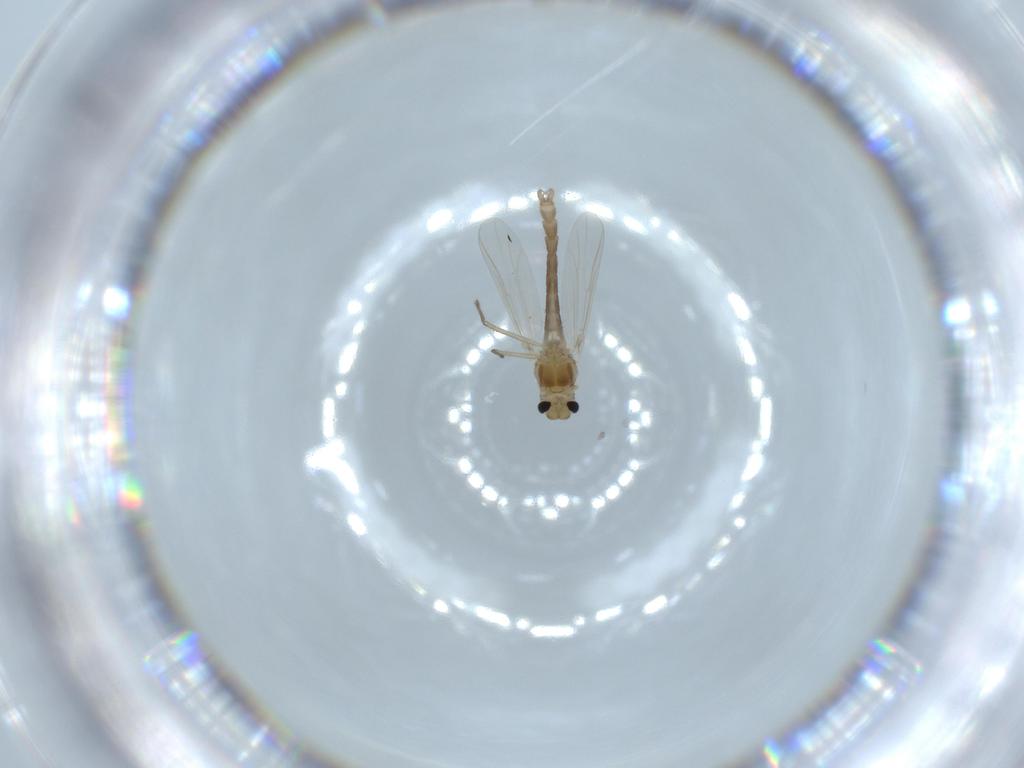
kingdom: Animalia
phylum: Arthropoda
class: Insecta
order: Diptera
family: Chironomidae
